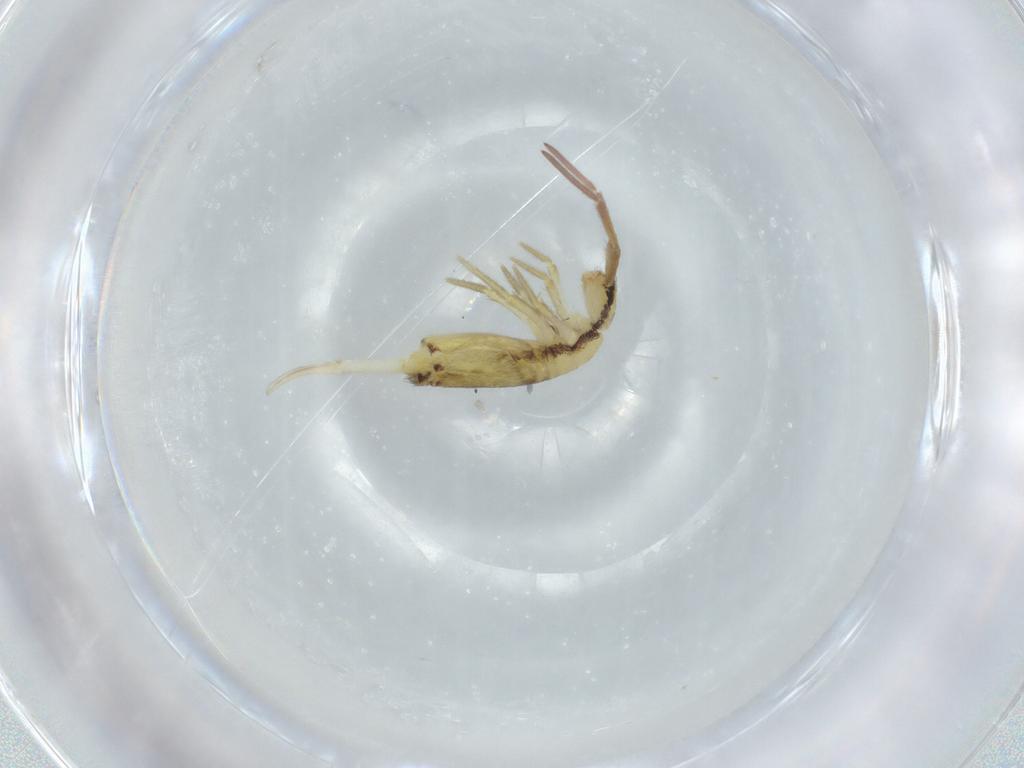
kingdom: Animalia
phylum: Arthropoda
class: Collembola
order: Entomobryomorpha
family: Entomobryidae
